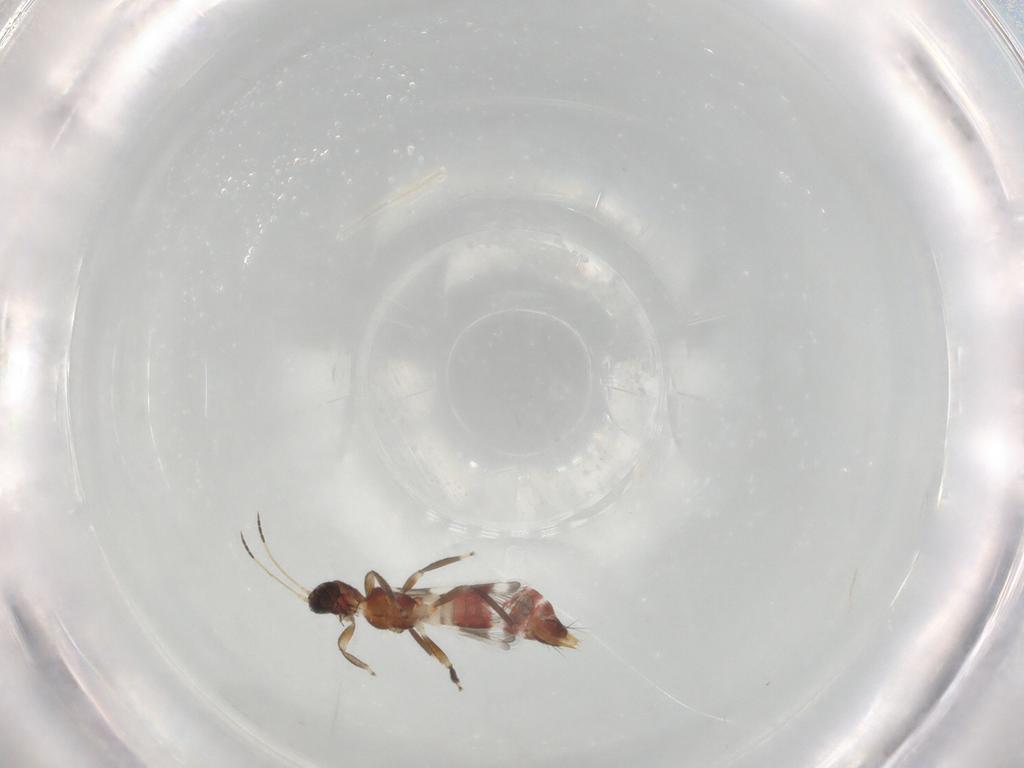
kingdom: Animalia
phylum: Arthropoda
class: Insecta
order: Thysanoptera
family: Aeolothripidae
